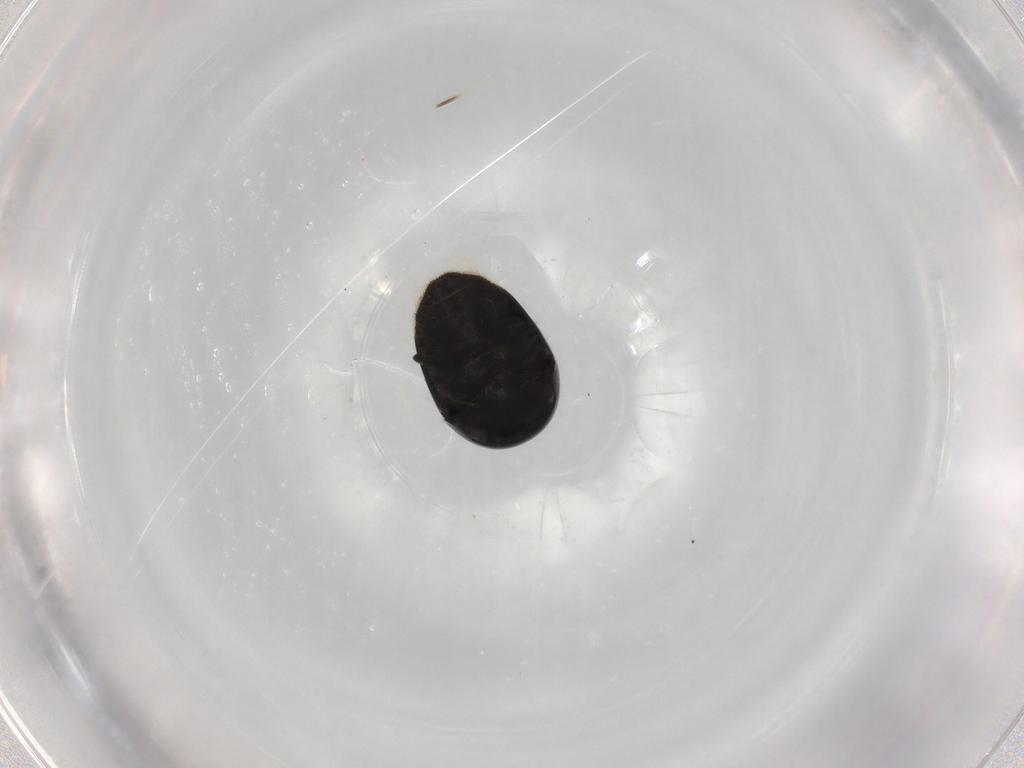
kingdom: Animalia
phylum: Arthropoda
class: Insecta
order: Coleoptera
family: Cybocephalidae
